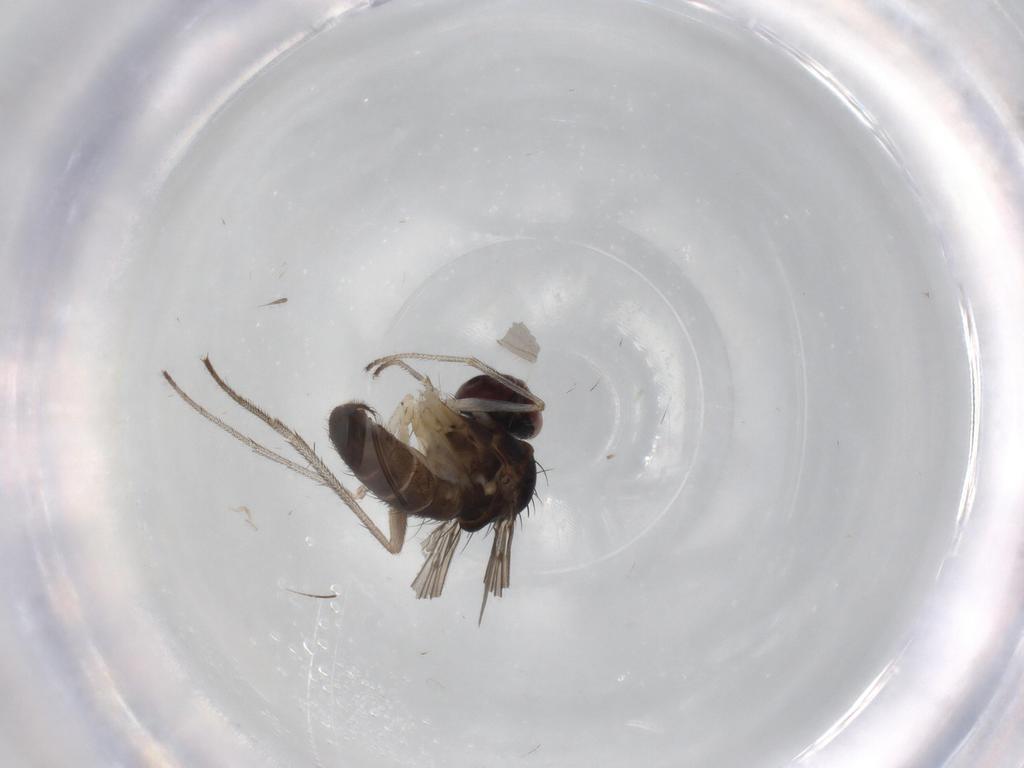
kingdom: Animalia
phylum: Arthropoda
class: Insecta
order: Diptera
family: Dolichopodidae
